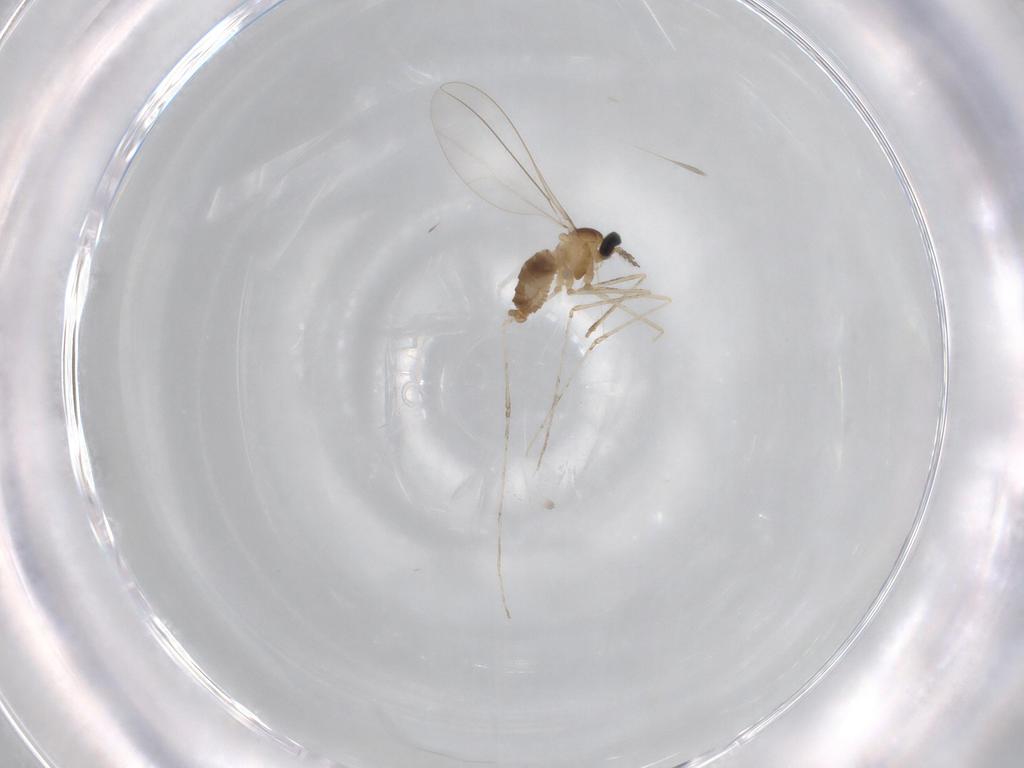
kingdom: Animalia
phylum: Arthropoda
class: Insecta
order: Diptera
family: Cecidomyiidae
